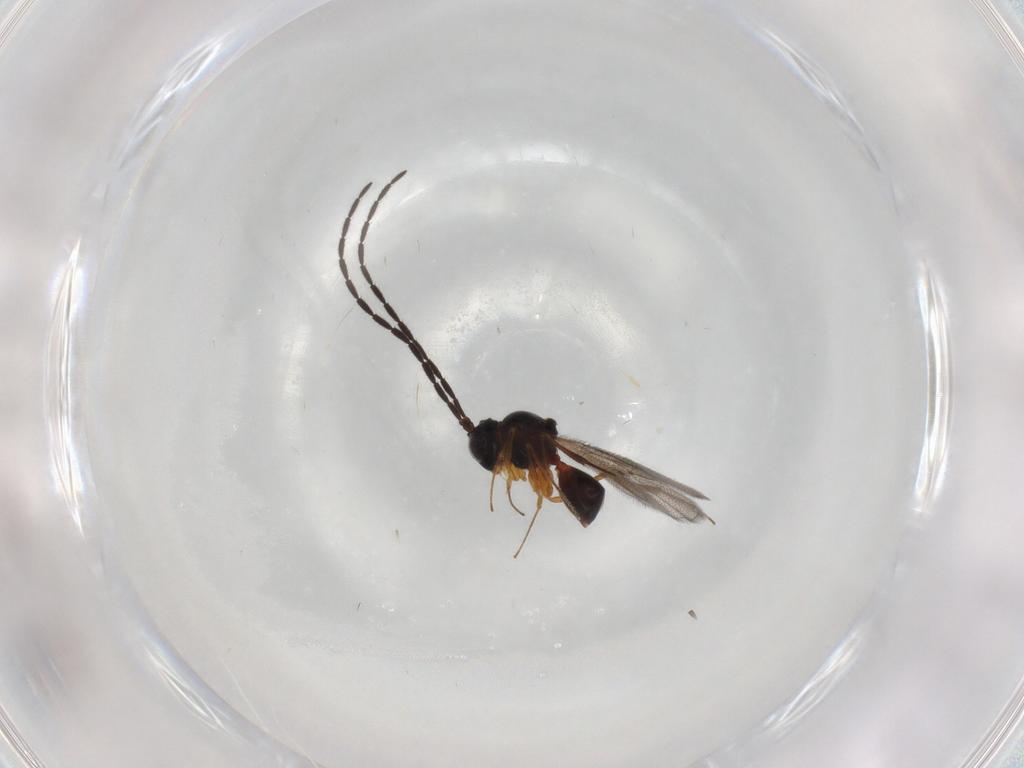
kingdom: Animalia
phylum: Arthropoda
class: Insecta
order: Hymenoptera
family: Figitidae
